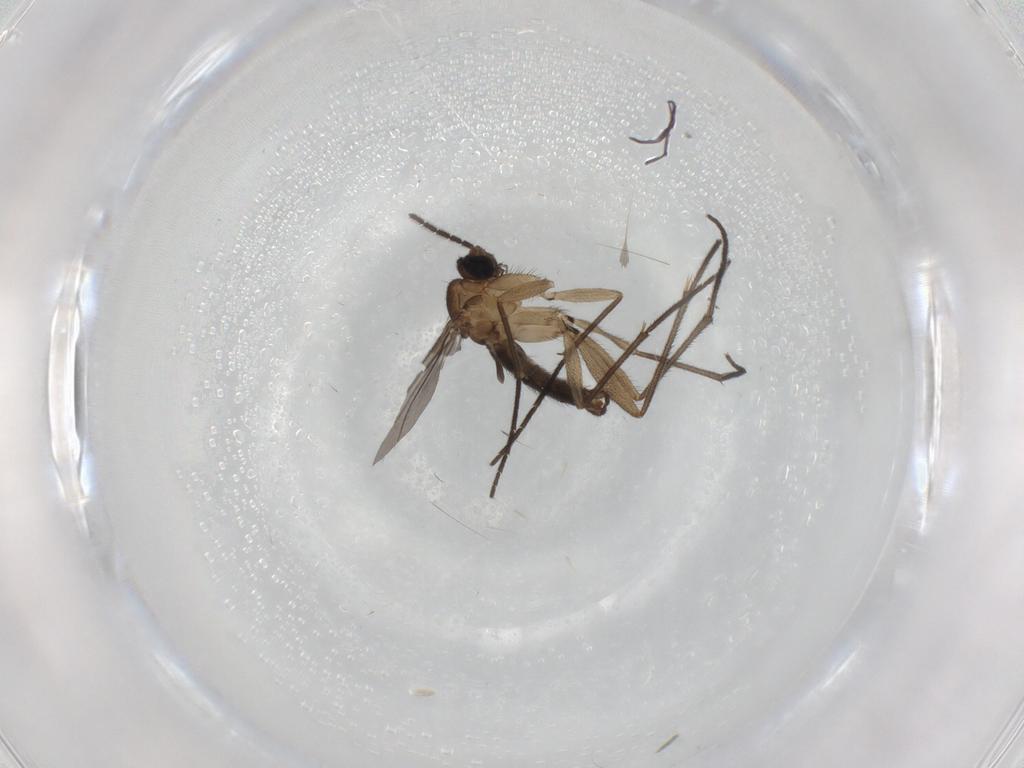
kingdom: Animalia
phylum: Arthropoda
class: Insecta
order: Diptera
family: Cecidomyiidae
